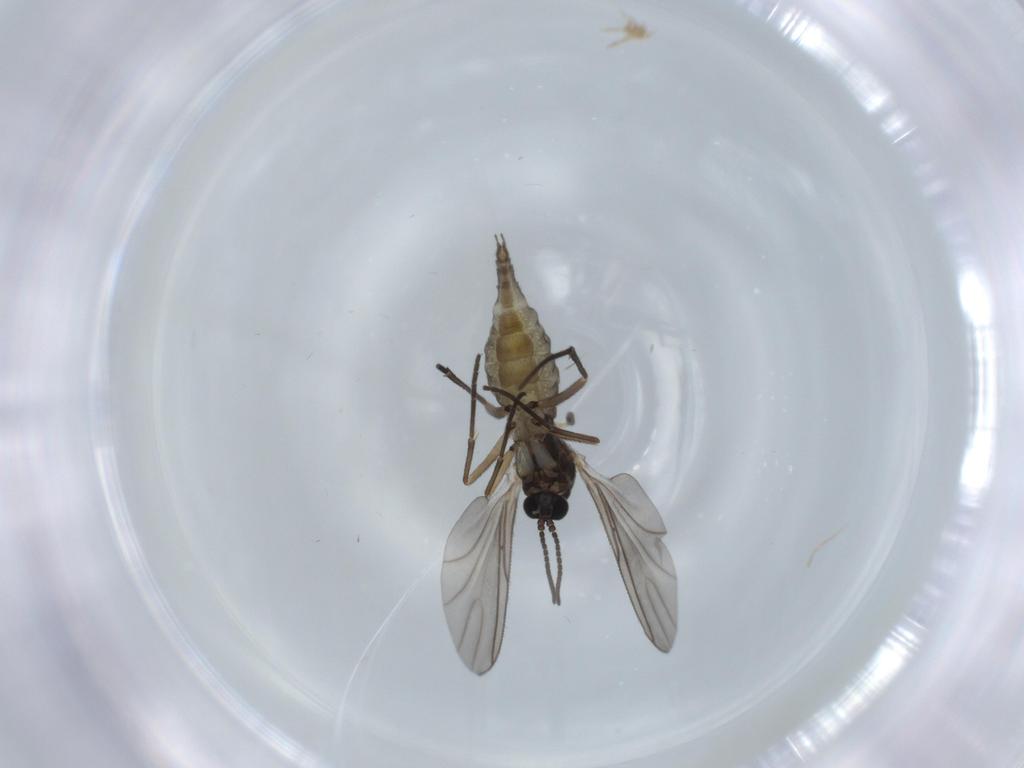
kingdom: Animalia
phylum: Arthropoda
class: Insecta
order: Diptera
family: Sciaridae
